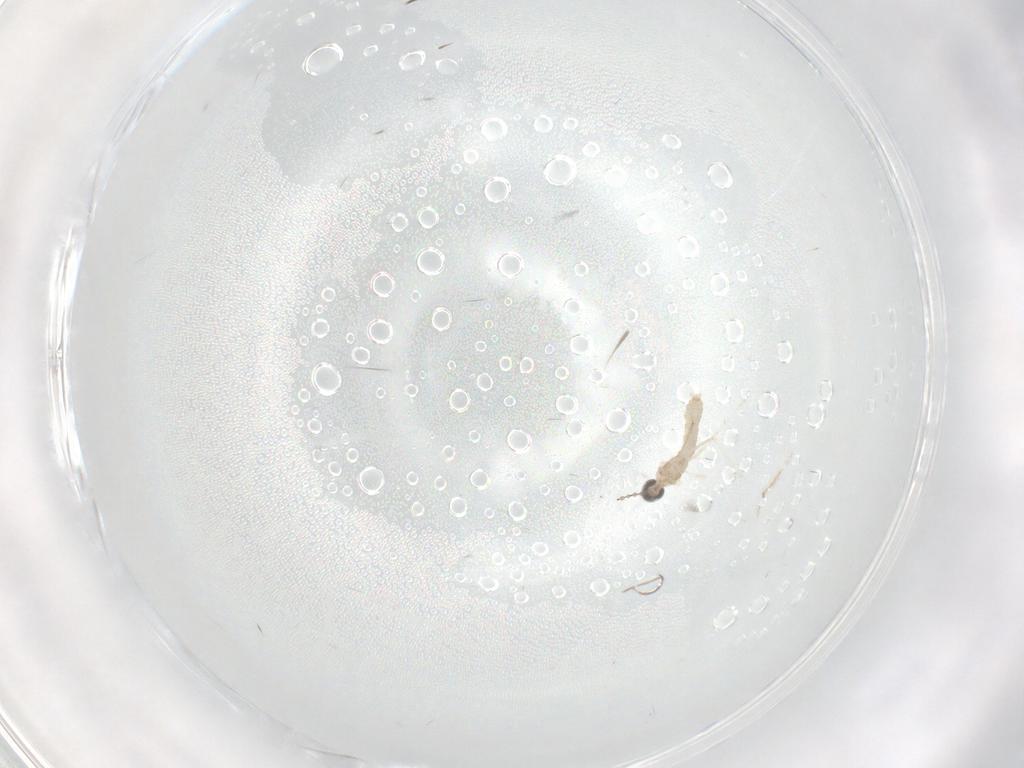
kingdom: Animalia
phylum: Arthropoda
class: Insecta
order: Diptera
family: Cecidomyiidae
